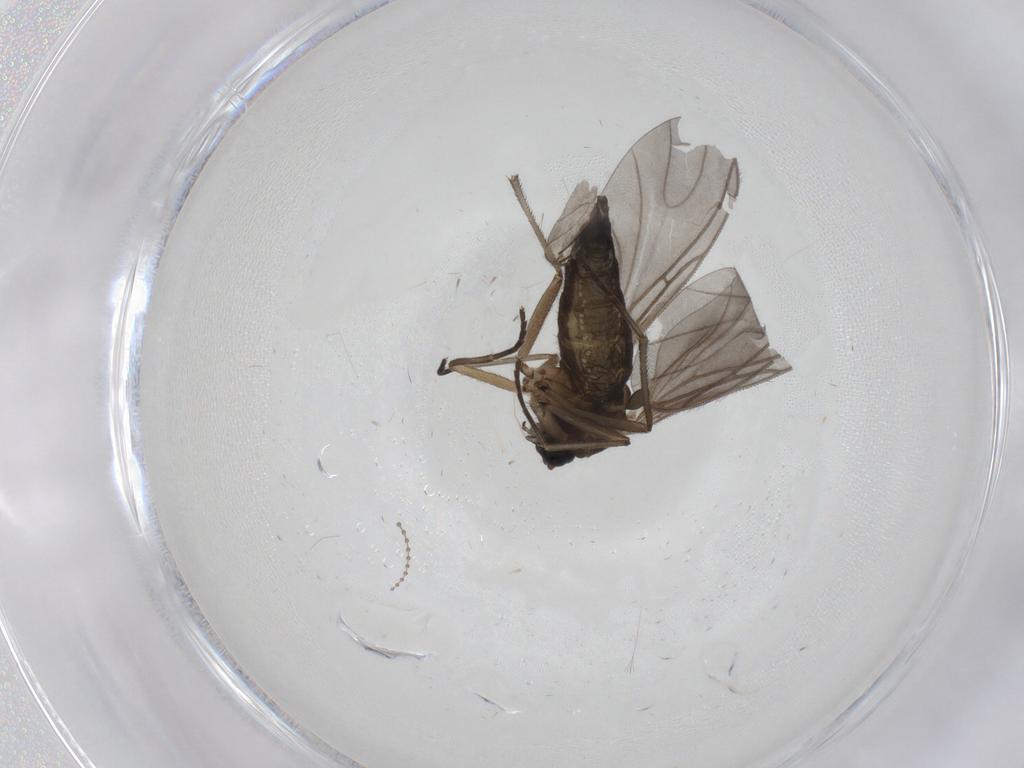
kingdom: Animalia
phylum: Arthropoda
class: Insecta
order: Diptera
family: Sciaridae
